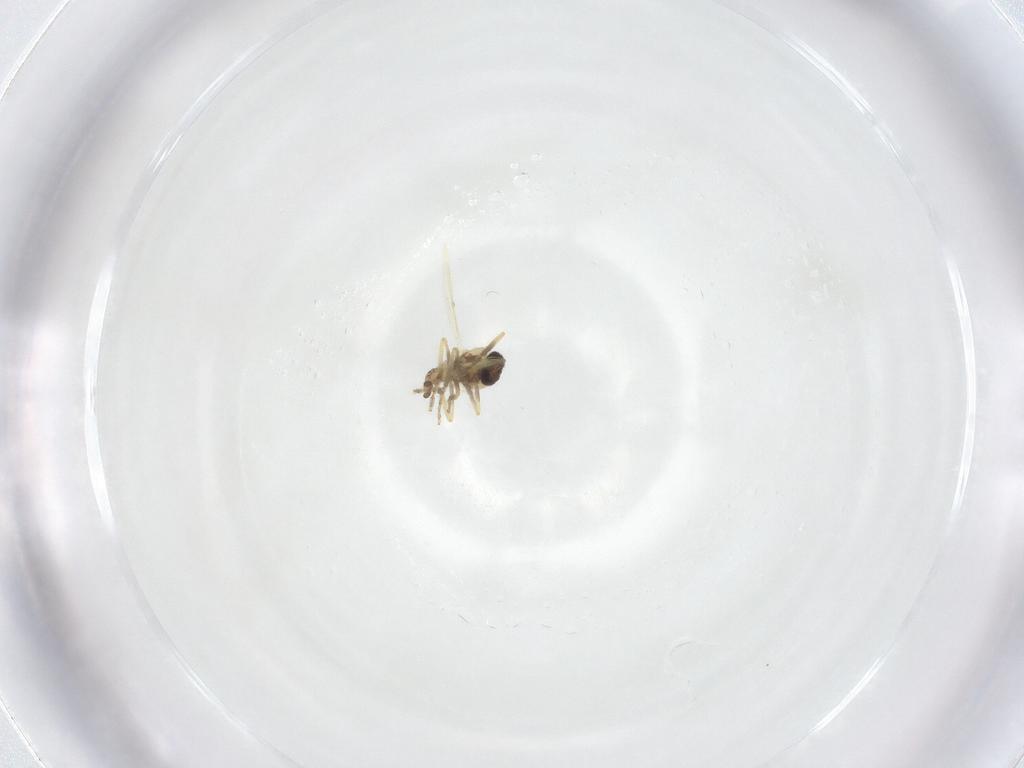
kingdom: Animalia
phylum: Arthropoda
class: Insecta
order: Diptera
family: Ceratopogonidae
